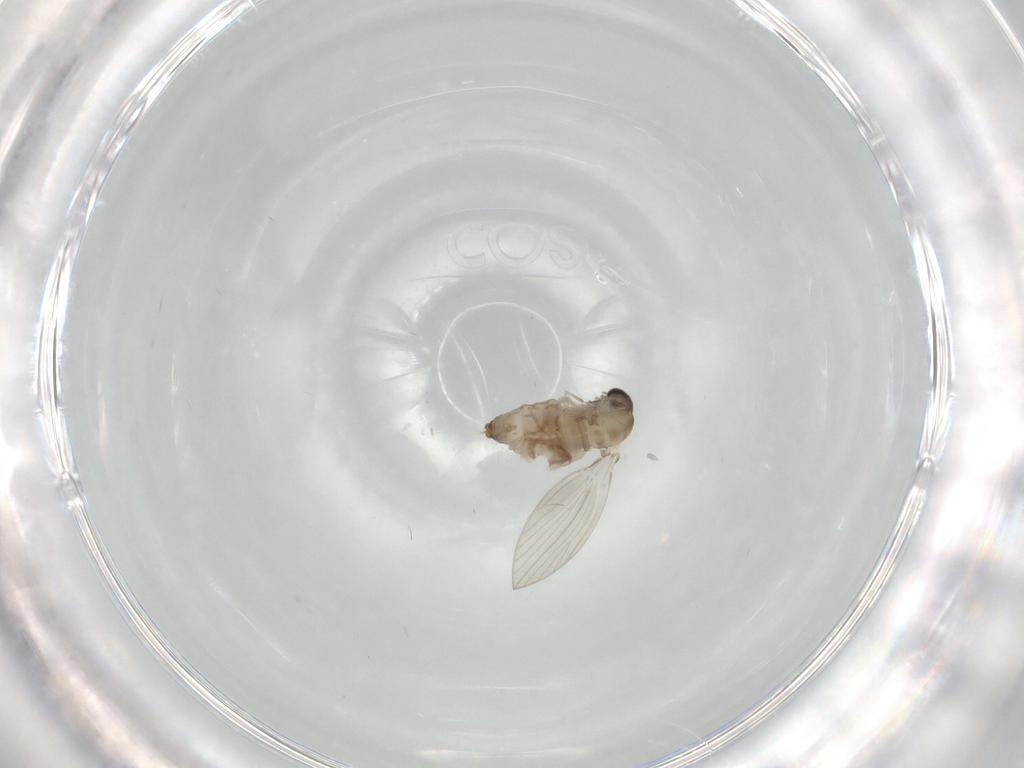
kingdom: Animalia
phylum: Arthropoda
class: Insecta
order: Diptera
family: Psychodidae
